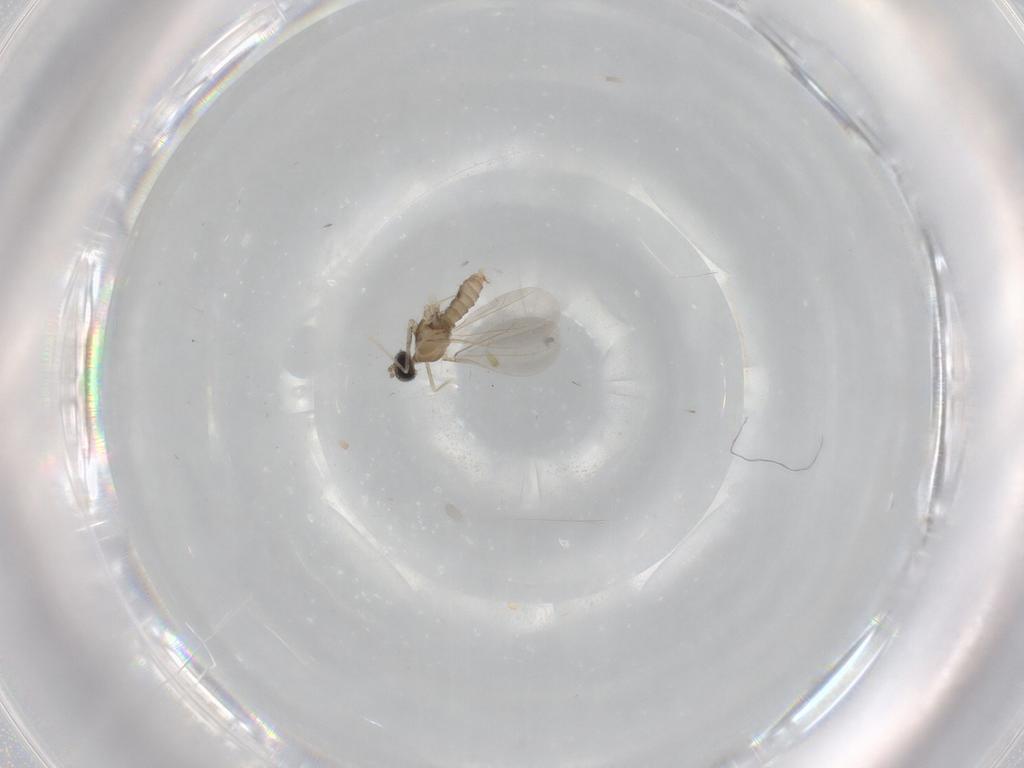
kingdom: Animalia
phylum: Arthropoda
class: Insecta
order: Diptera
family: Cecidomyiidae
